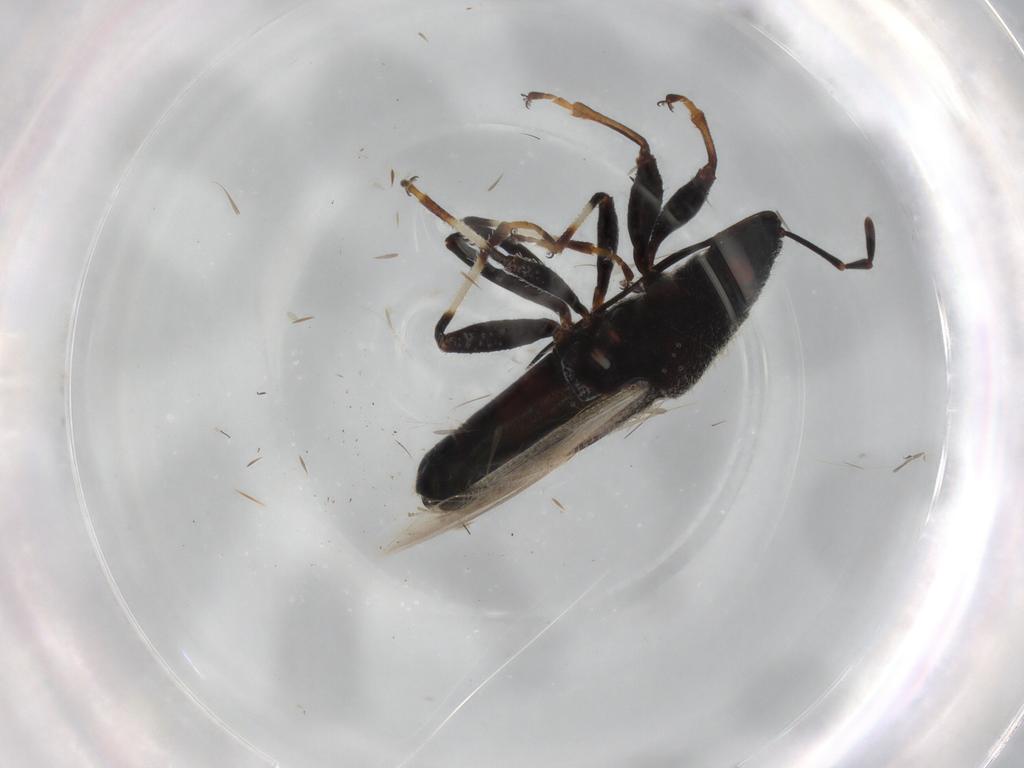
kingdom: Animalia
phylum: Arthropoda
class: Insecta
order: Hemiptera
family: Oxycarenidae
